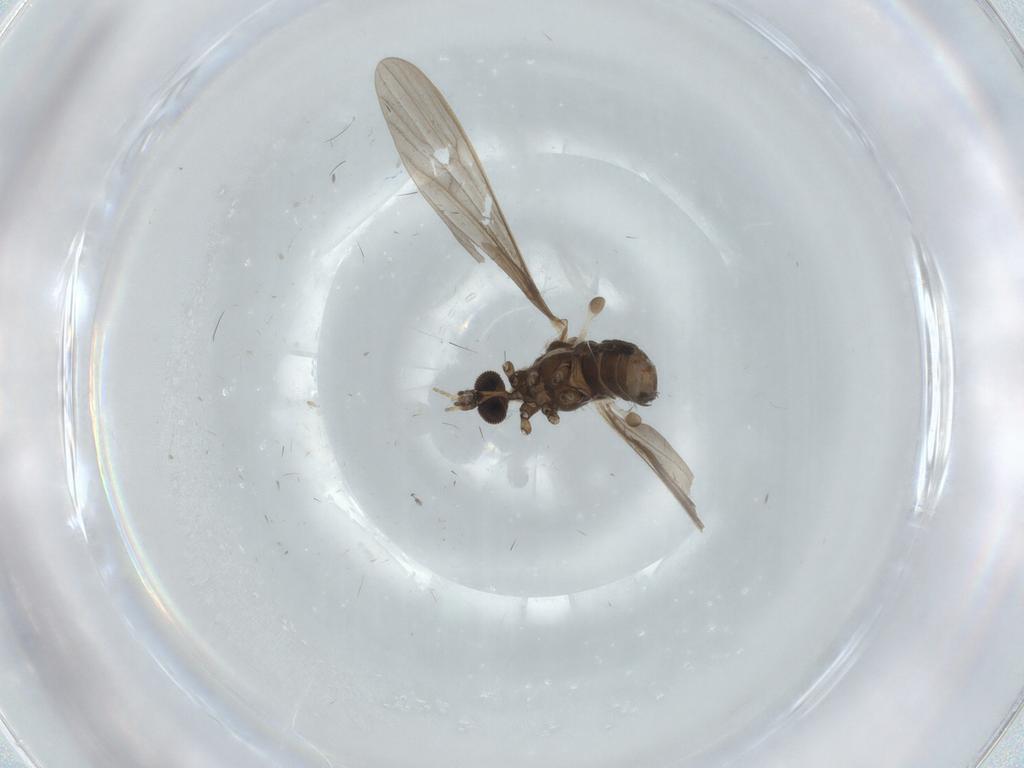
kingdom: Animalia
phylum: Arthropoda
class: Insecta
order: Diptera
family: Limoniidae
